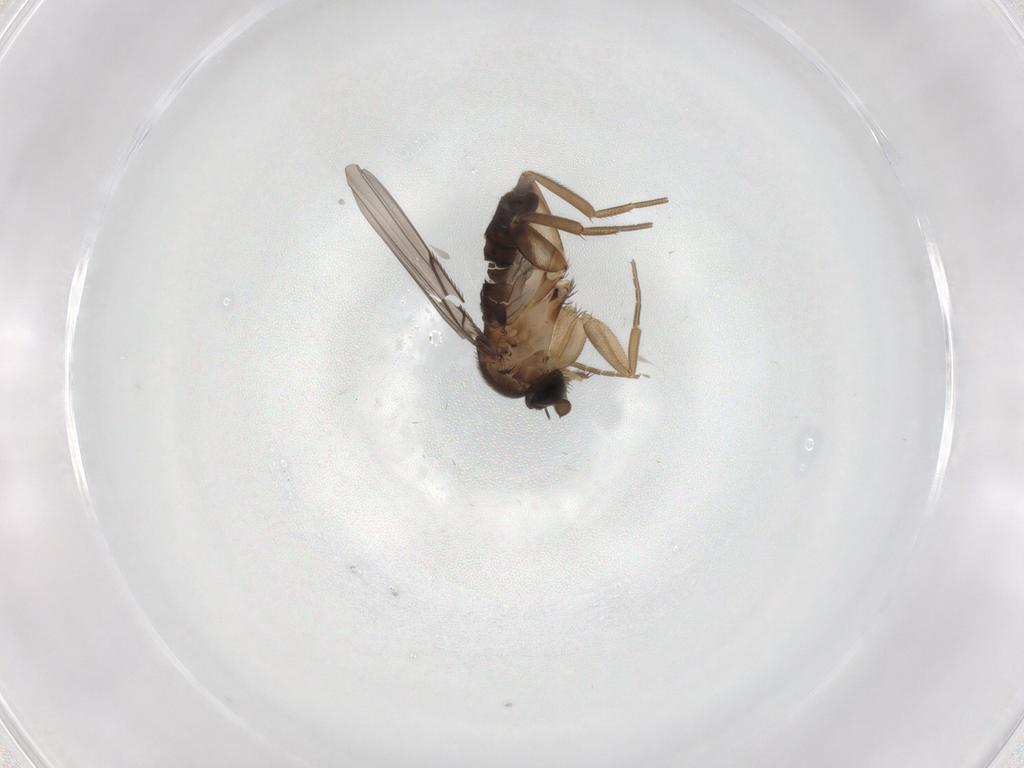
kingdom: Animalia
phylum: Arthropoda
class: Insecta
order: Diptera
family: Phoridae
